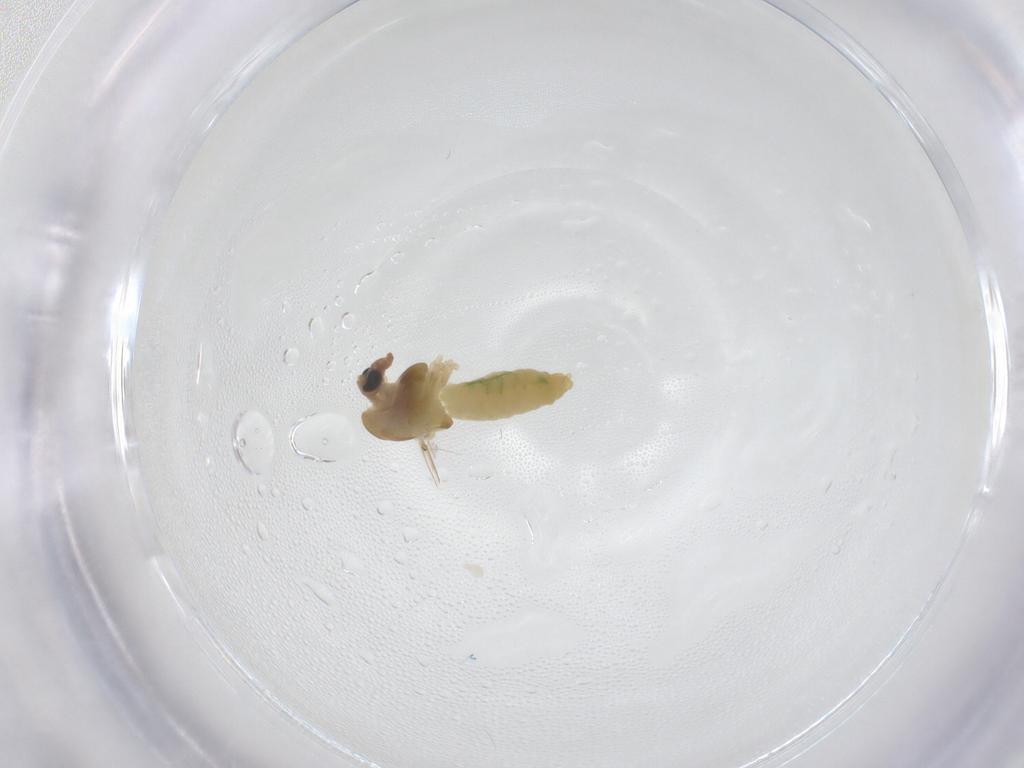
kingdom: Animalia
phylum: Arthropoda
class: Insecta
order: Diptera
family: Chironomidae
